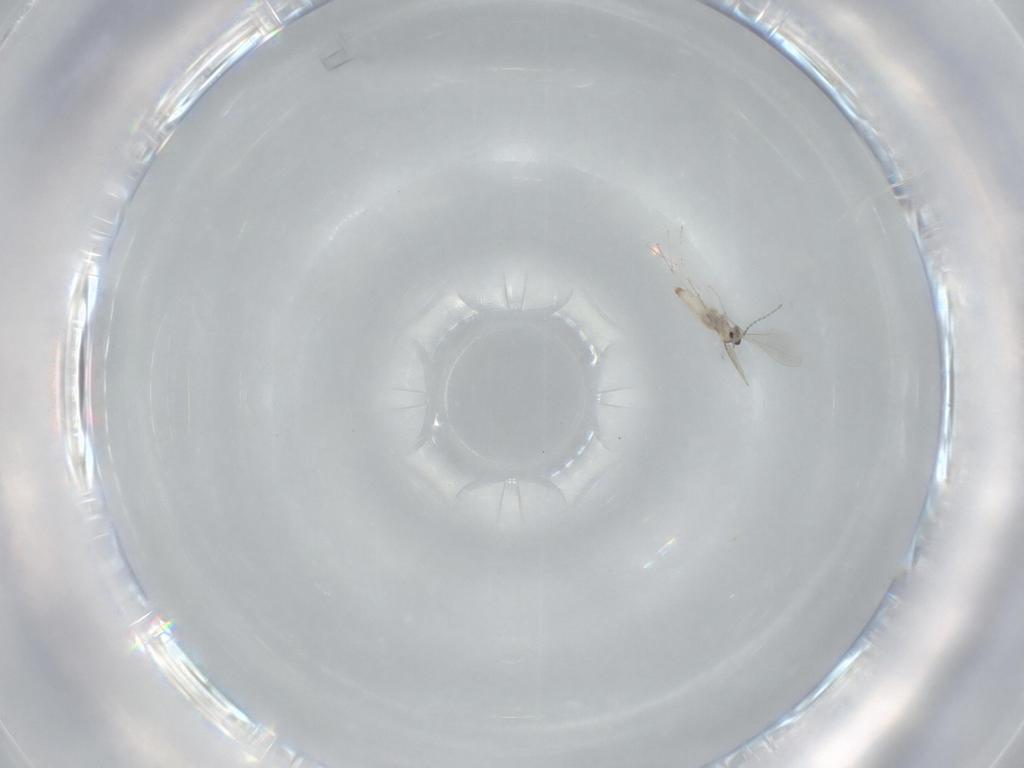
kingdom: Animalia
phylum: Arthropoda
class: Insecta
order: Diptera
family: Cecidomyiidae
